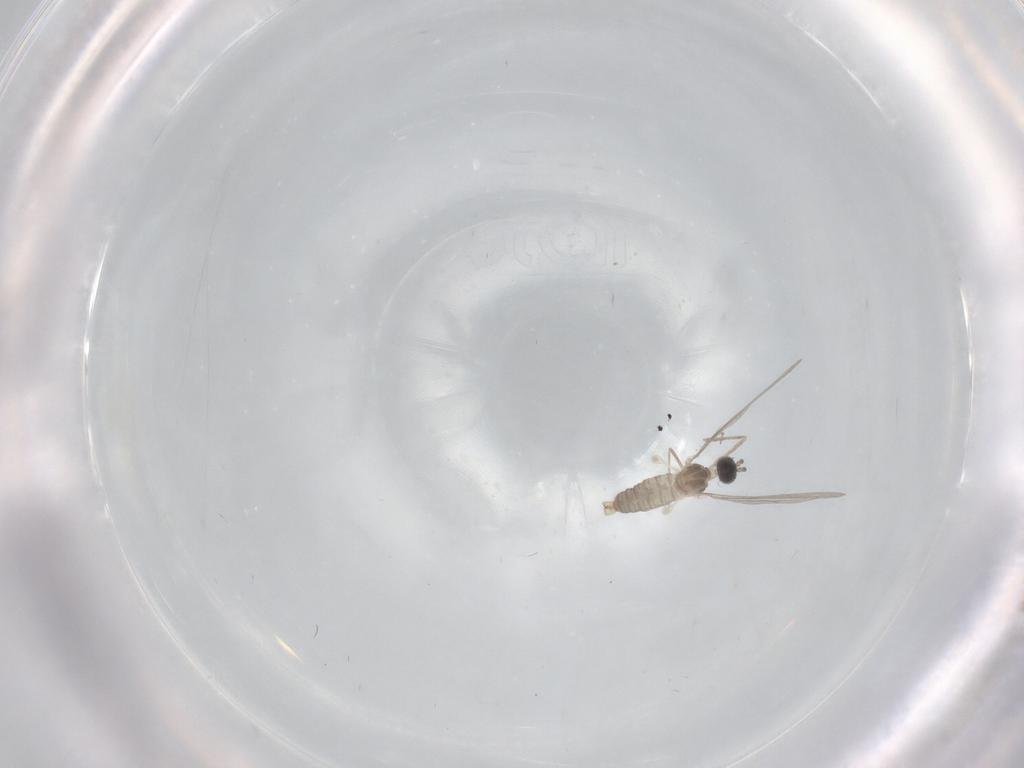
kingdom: Animalia
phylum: Arthropoda
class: Insecta
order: Diptera
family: Cecidomyiidae
